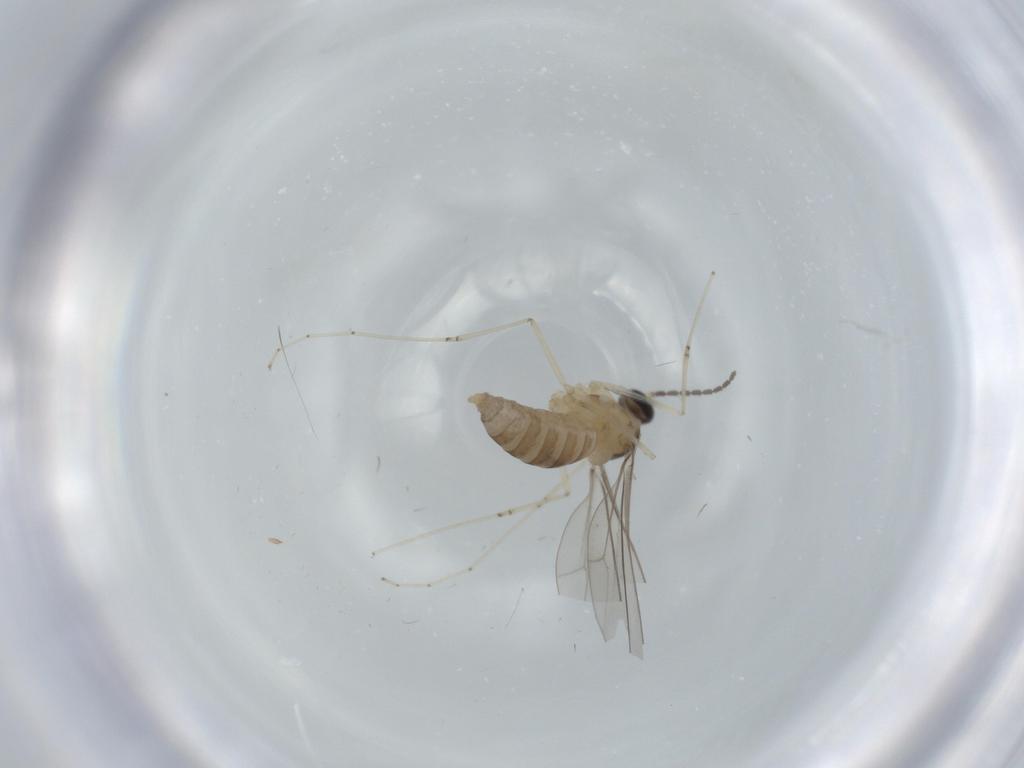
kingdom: Animalia
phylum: Arthropoda
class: Insecta
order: Diptera
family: Cecidomyiidae
